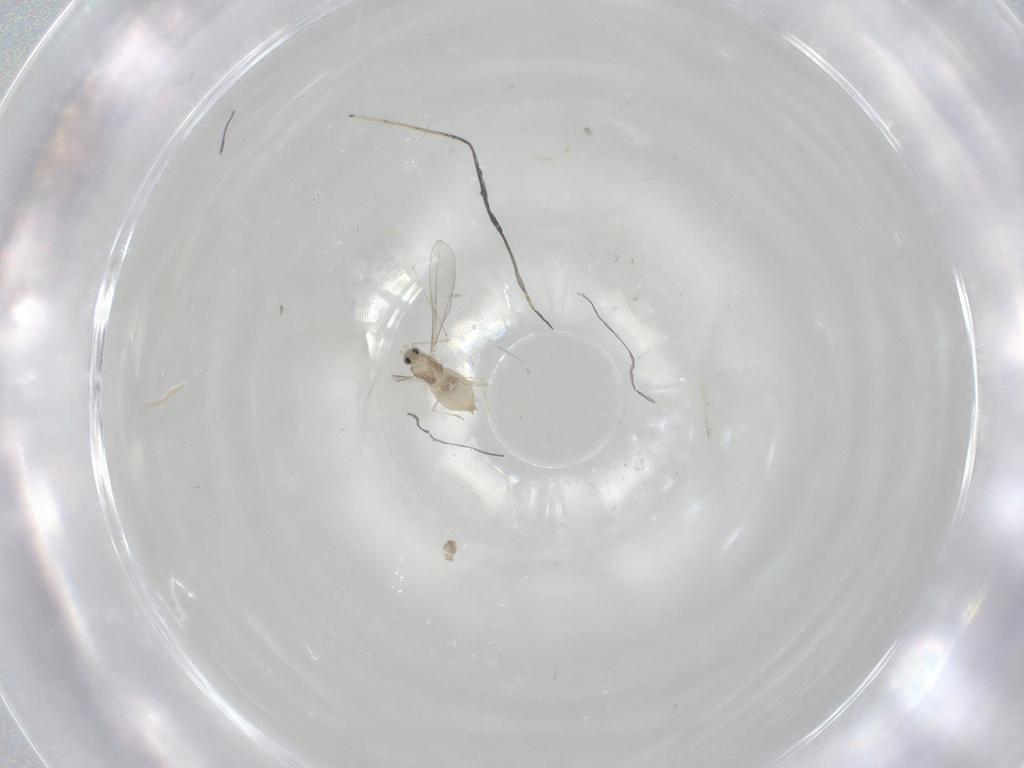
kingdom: Animalia
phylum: Arthropoda
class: Insecta
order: Diptera
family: Cecidomyiidae
